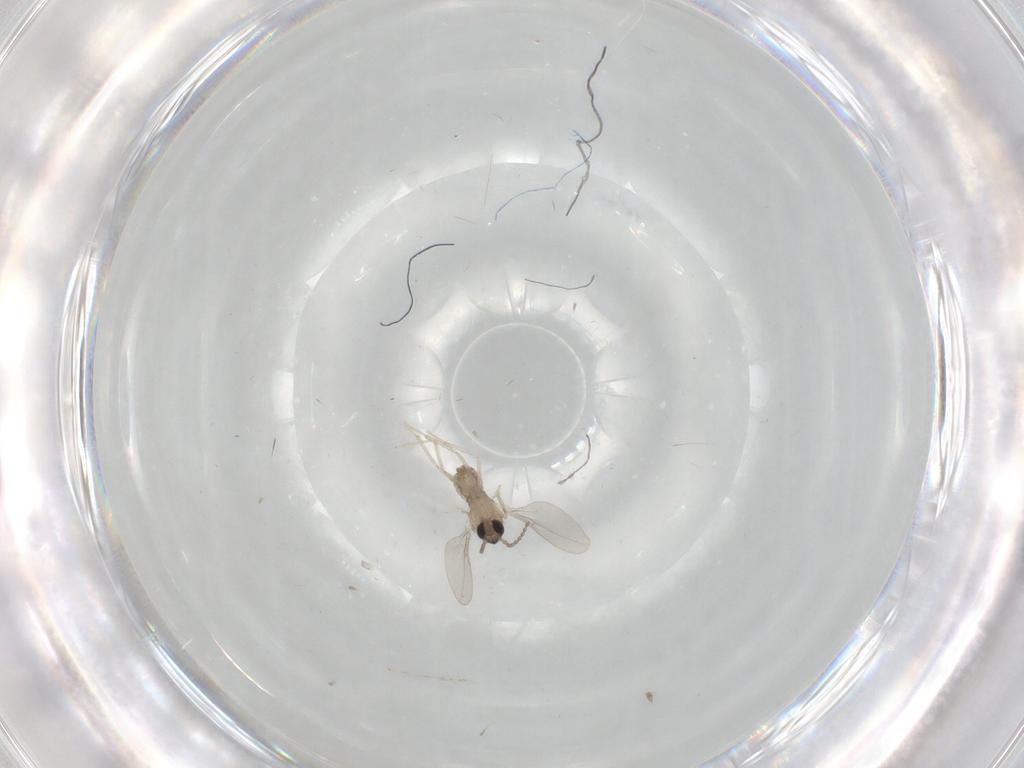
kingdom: Animalia
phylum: Arthropoda
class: Insecta
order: Diptera
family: Cecidomyiidae
